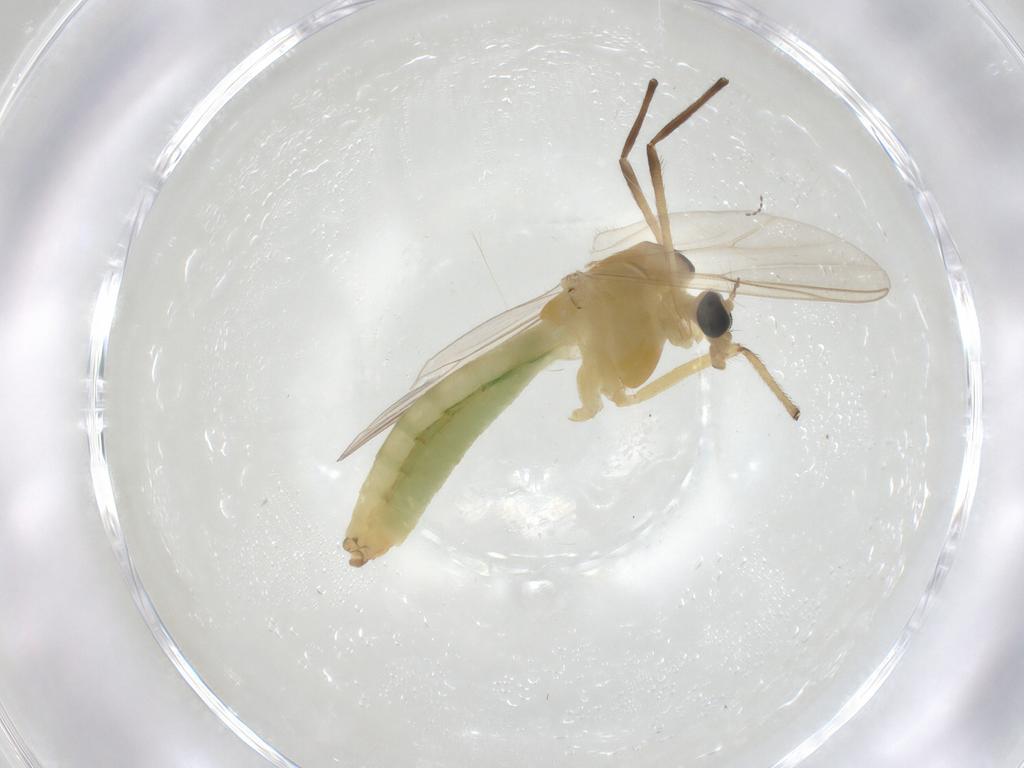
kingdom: Animalia
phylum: Arthropoda
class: Insecta
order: Diptera
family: Chironomidae
